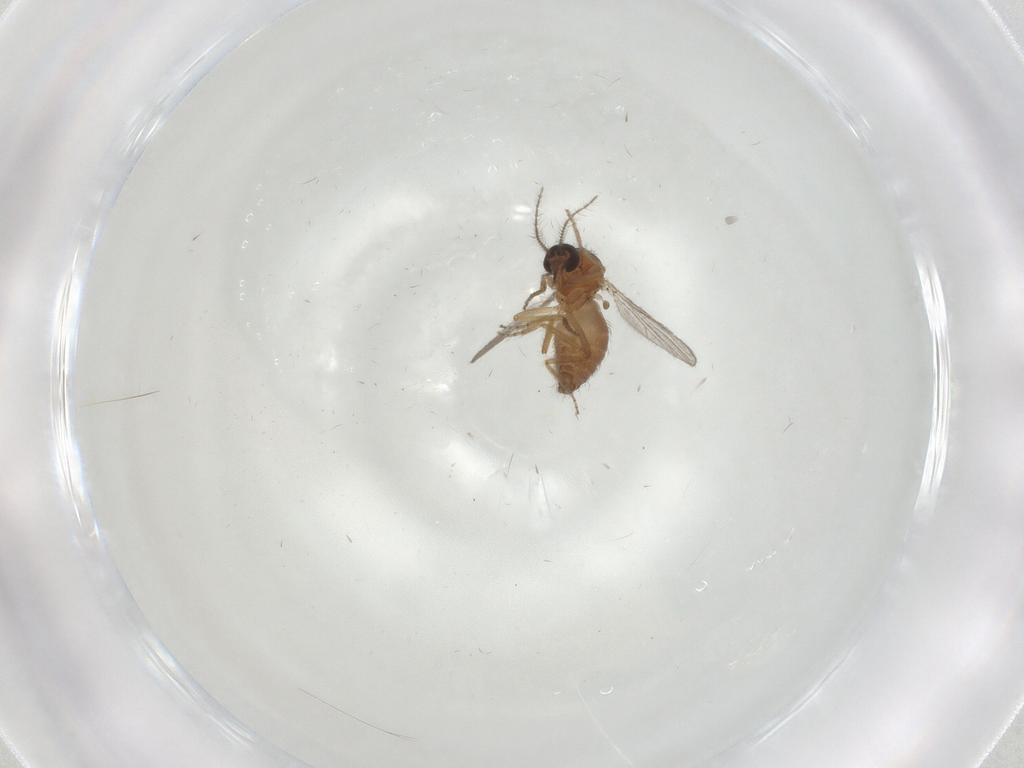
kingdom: Animalia
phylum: Arthropoda
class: Insecta
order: Diptera
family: Ceratopogonidae
